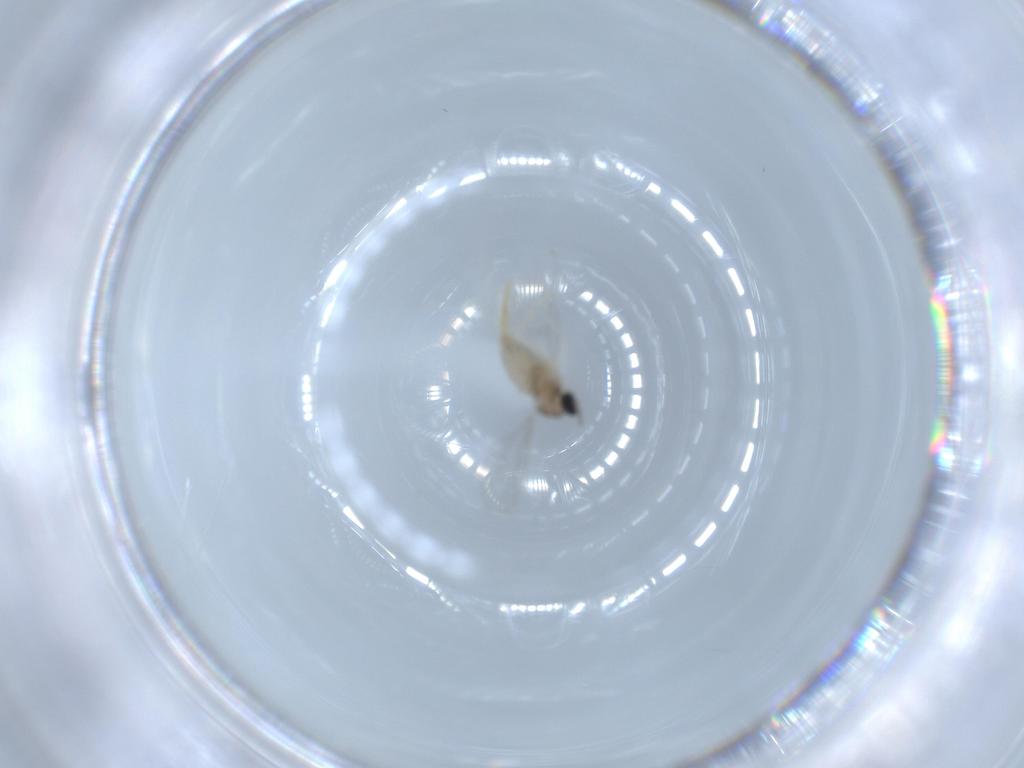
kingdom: Animalia
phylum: Arthropoda
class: Insecta
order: Diptera
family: Cecidomyiidae
